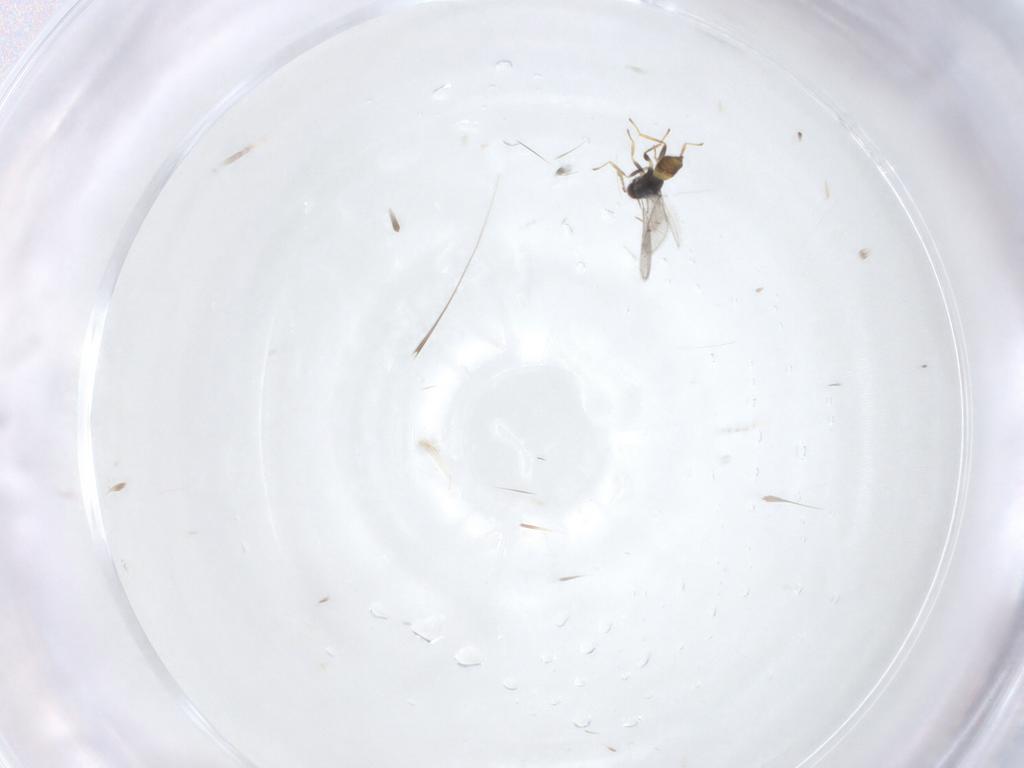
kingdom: Animalia
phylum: Arthropoda
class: Insecta
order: Hymenoptera
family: Eulophidae
